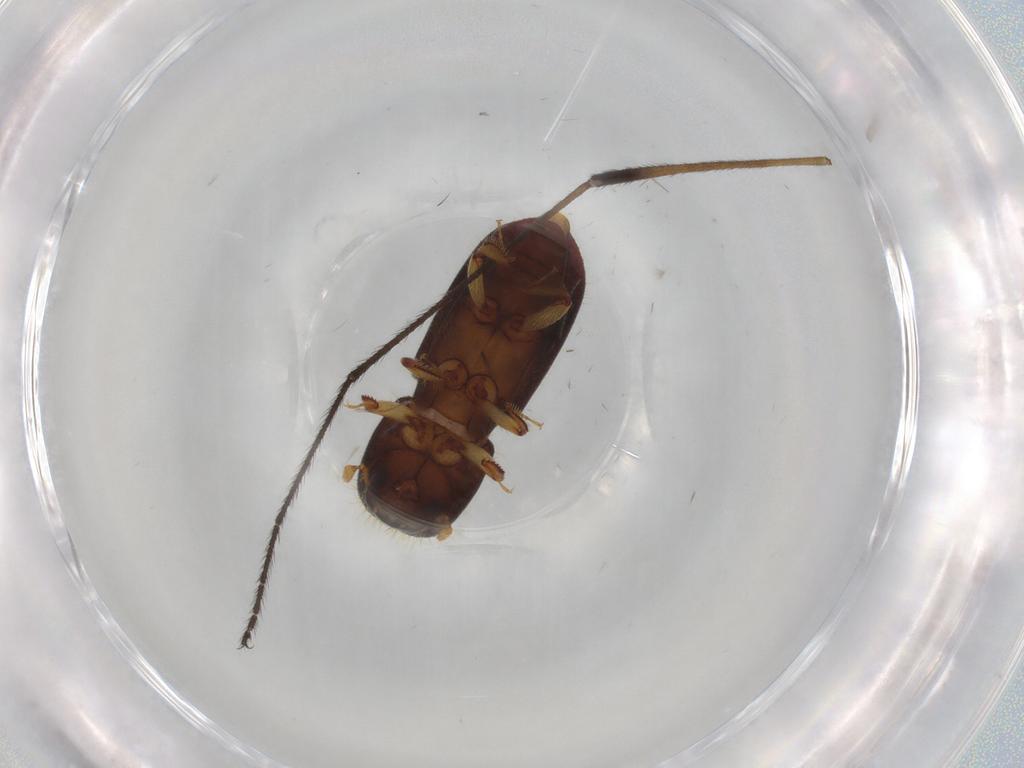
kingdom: Animalia
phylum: Arthropoda
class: Insecta
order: Coleoptera
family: Curculionidae
